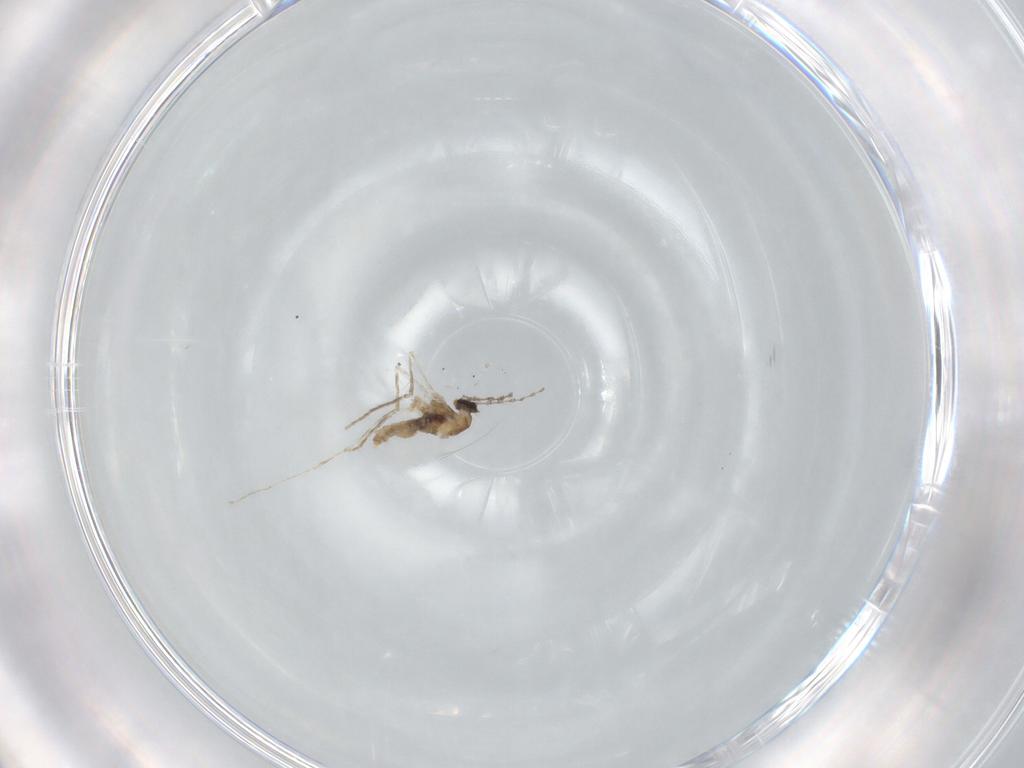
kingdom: Animalia
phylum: Arthropoda
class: Insecta
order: Diptera
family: Cecidomyiidae
